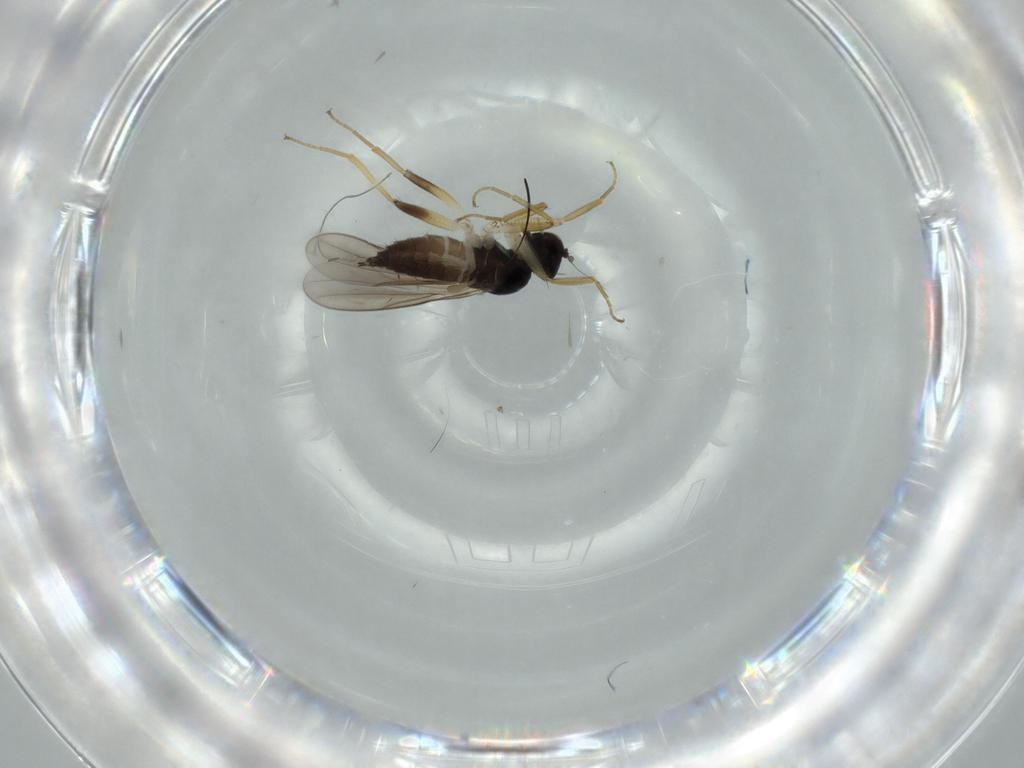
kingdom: Animalia
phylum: Arthropoda
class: Insecta
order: Diptera
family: Hybotidae
